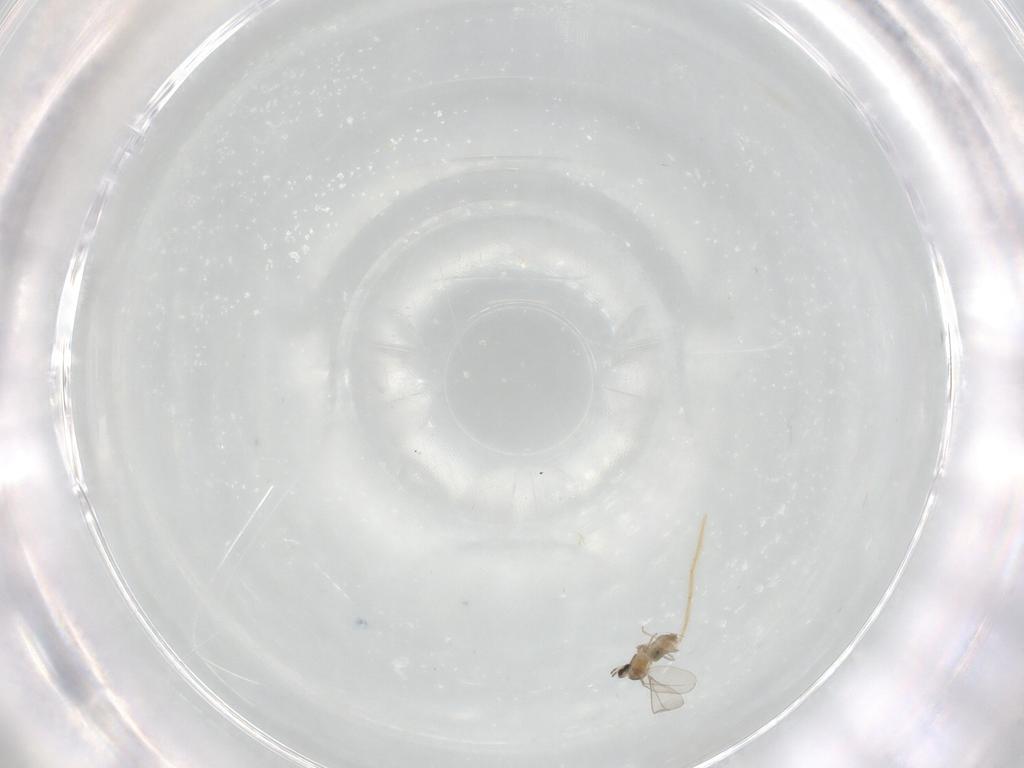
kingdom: Animalia
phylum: Arthropoda
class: Insecta
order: Diptera
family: Chironomidae
